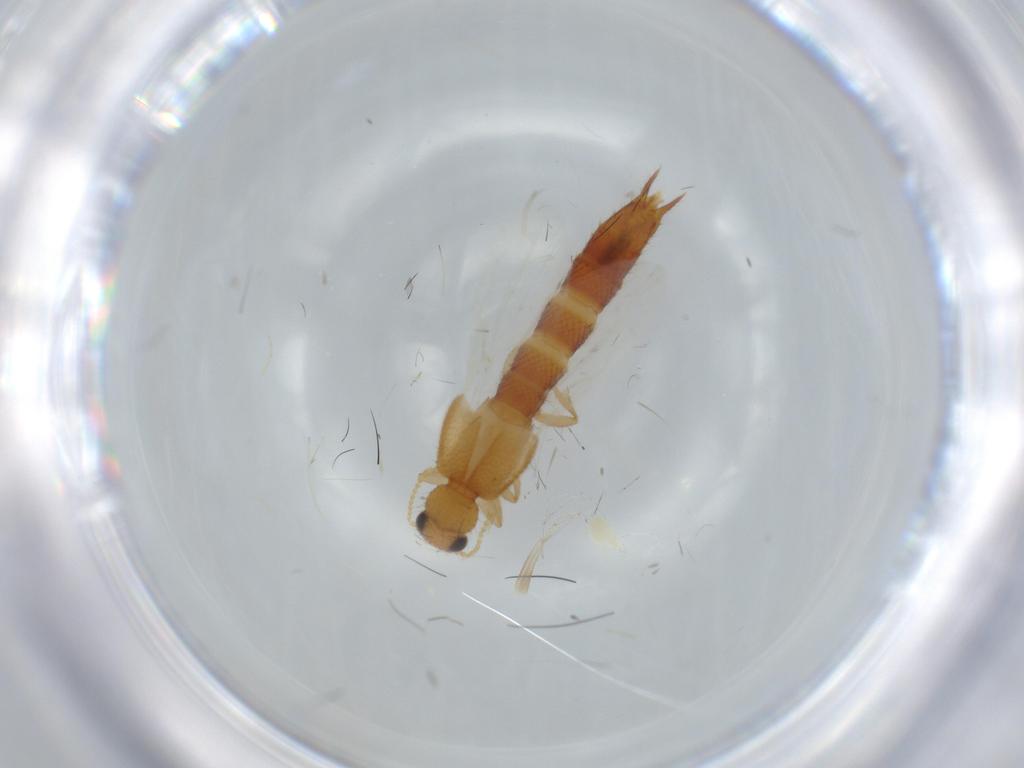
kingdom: Animalia
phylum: Arthropoda
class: Insecta
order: Coleoptera
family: Staphylinidae
